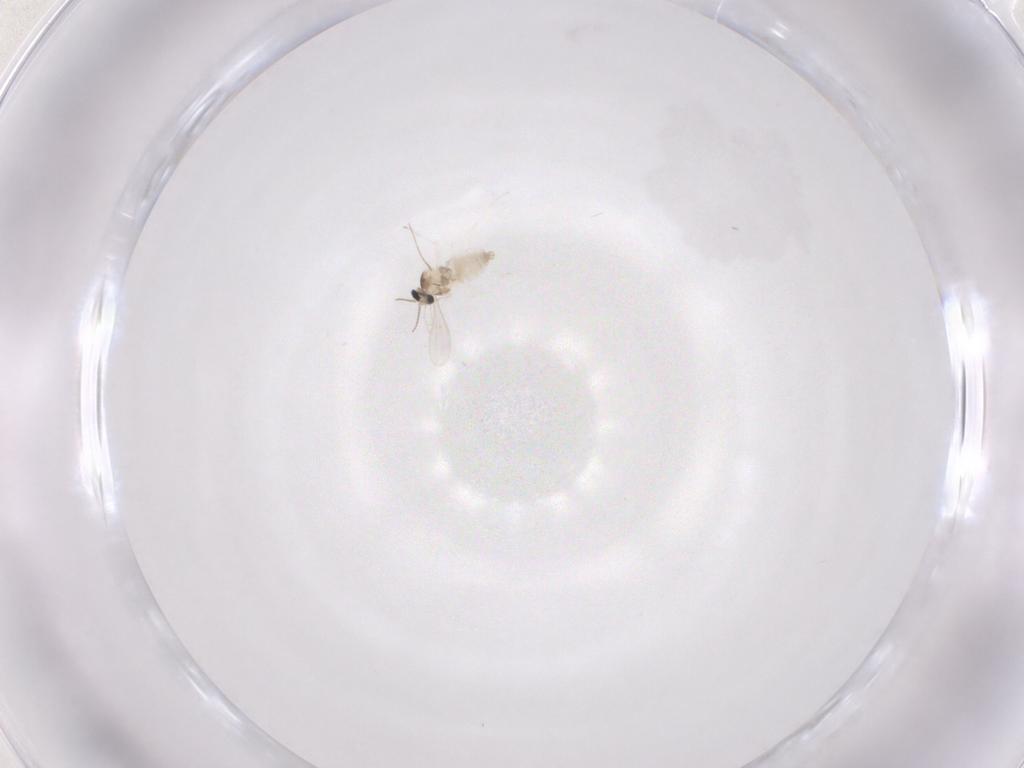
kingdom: Animalia
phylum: Arthropoda
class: Insecta
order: Diptera
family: Dolichopodidae
